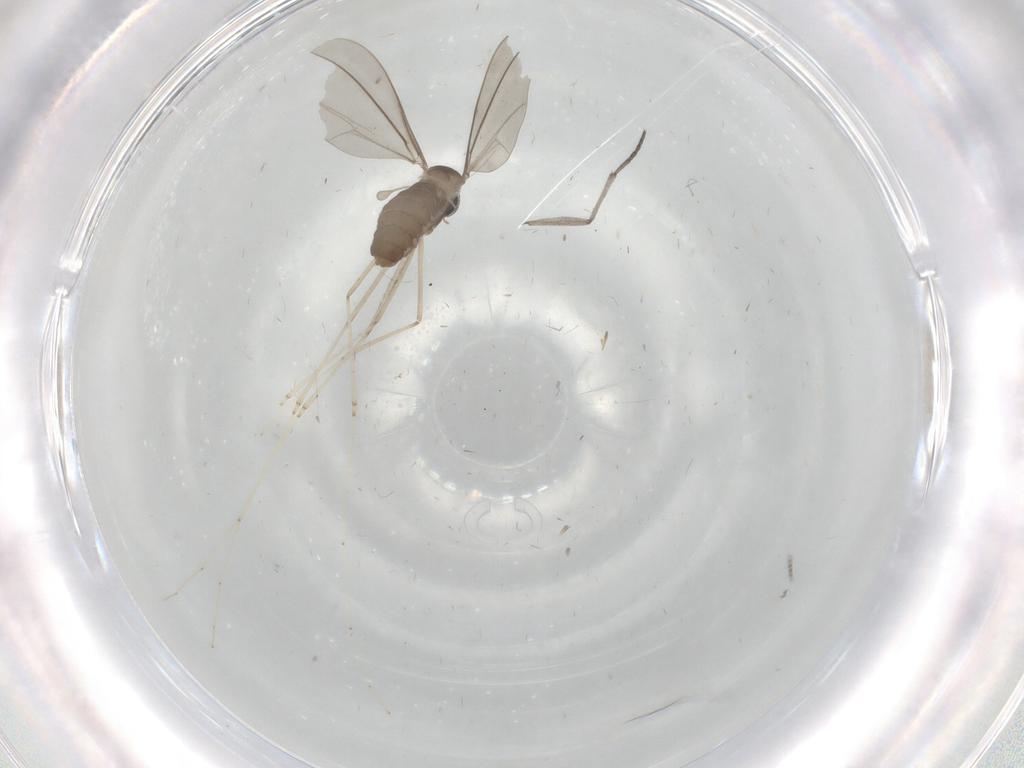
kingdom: Animalia
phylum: Arthropoda
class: Insecta
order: Diptera
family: Cecidomyiidae
